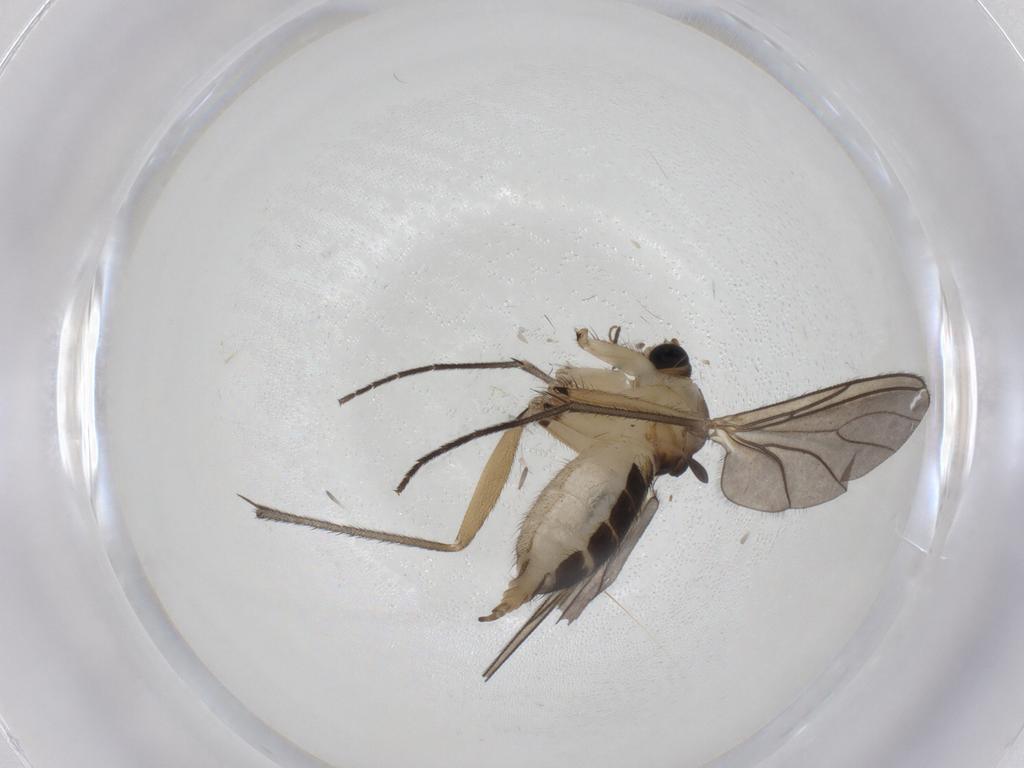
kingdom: Animalia
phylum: Arthropoda
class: Insecta
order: Diptera
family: Sciaridae
